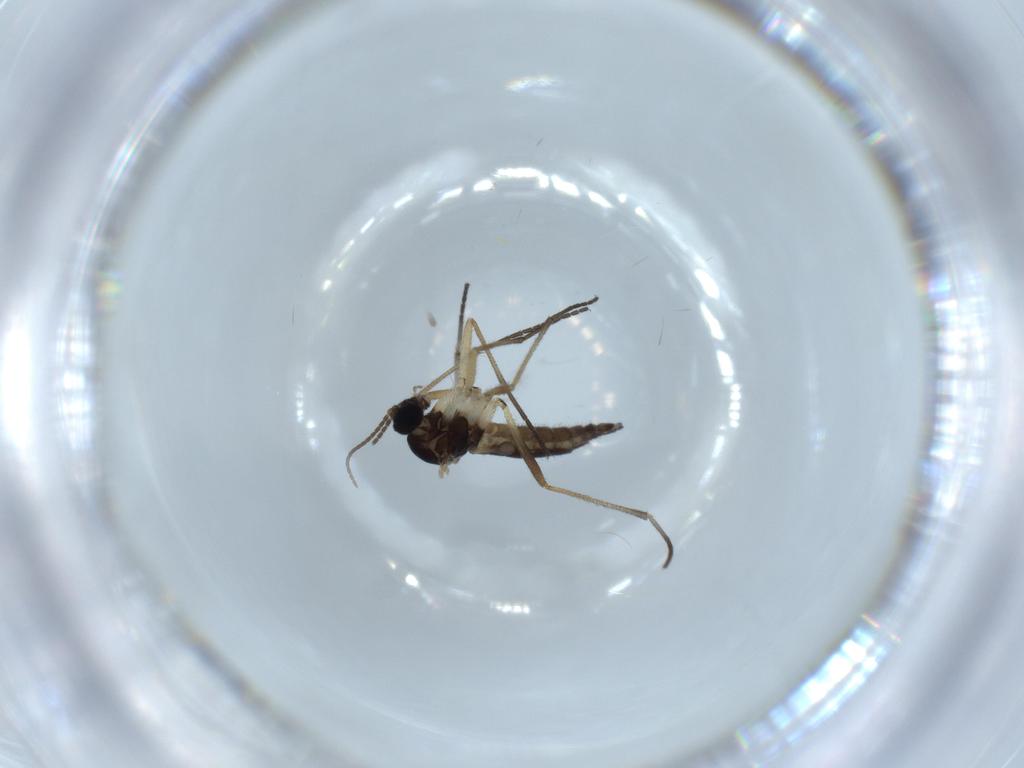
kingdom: Animalia
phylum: Arthropoda
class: Insecta
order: Diptera
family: Sciaridae
